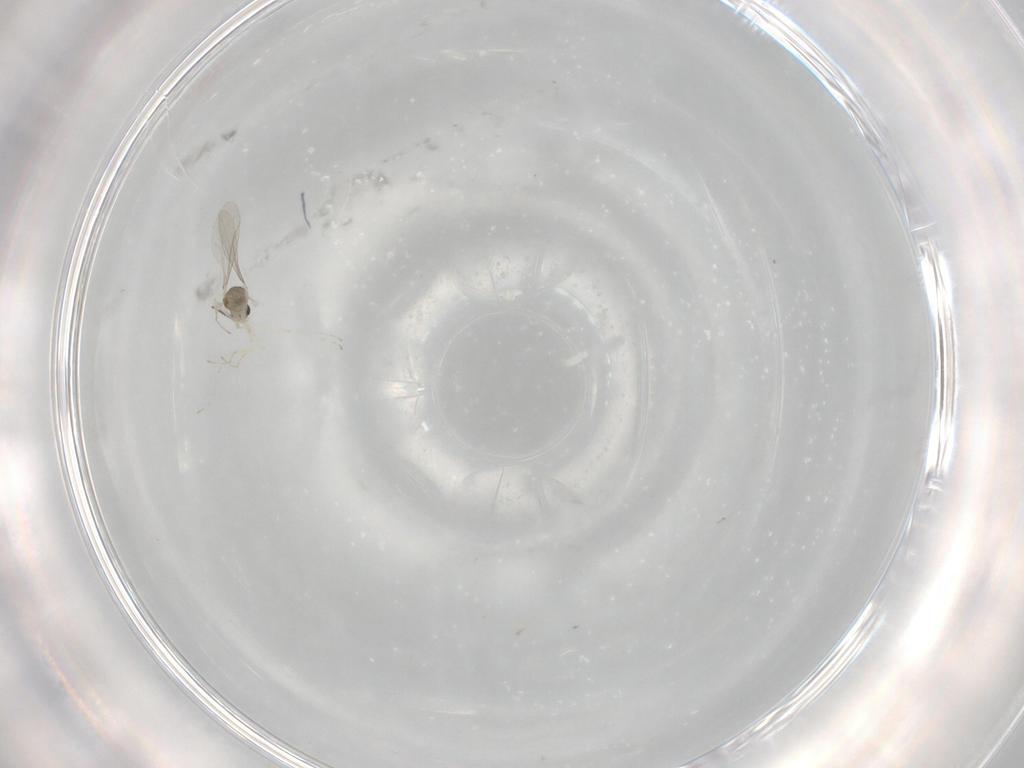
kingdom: Animalia
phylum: Arthropoda
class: Insecta
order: Diptera
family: Cecidomyiidae
